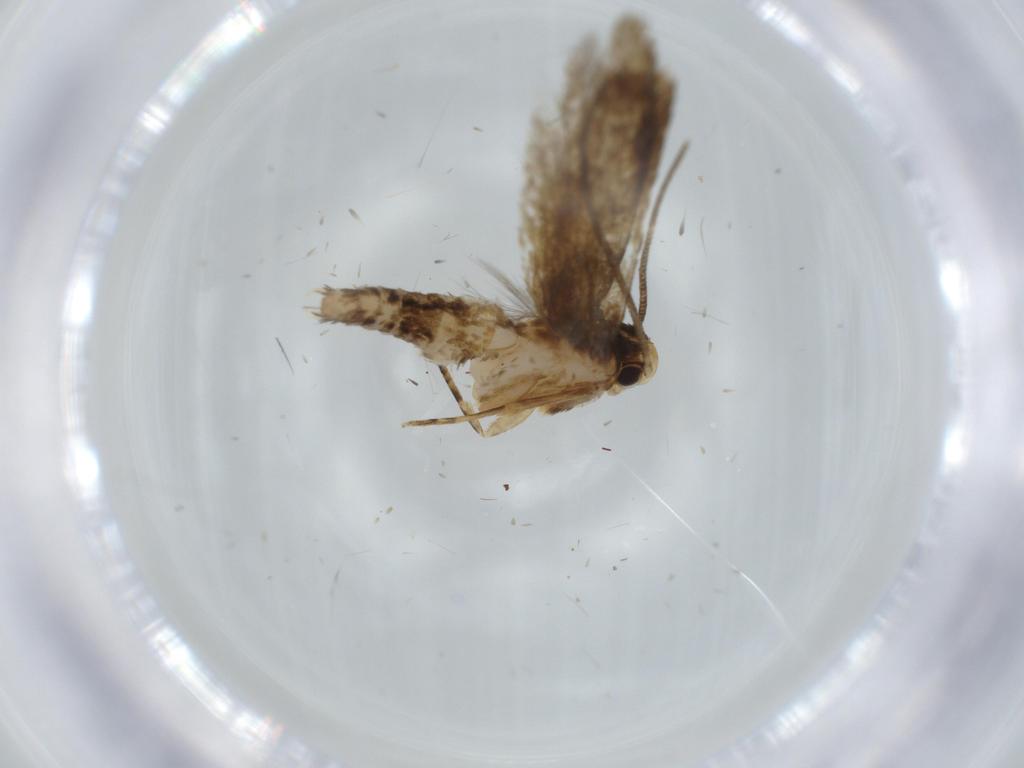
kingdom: Animalia
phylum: Arthropoda
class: Insecta
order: Lepidoptera
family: Tineidae
